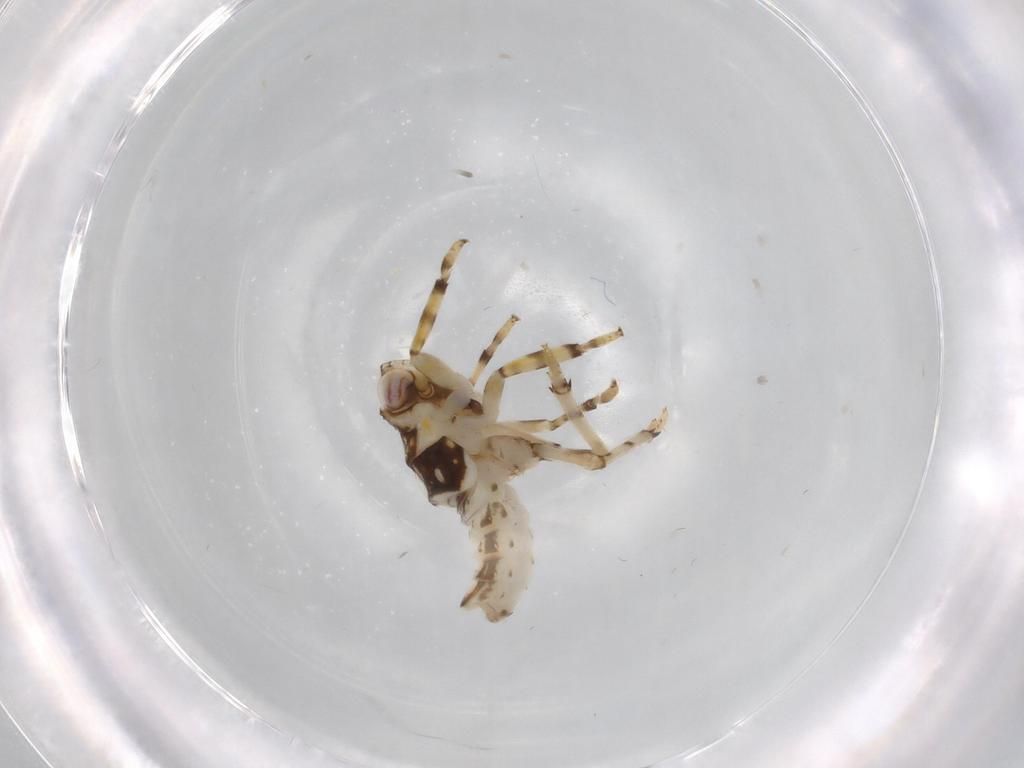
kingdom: Animalia
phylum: Arthropoda
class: Insecta
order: Hemiptera
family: Issidae
